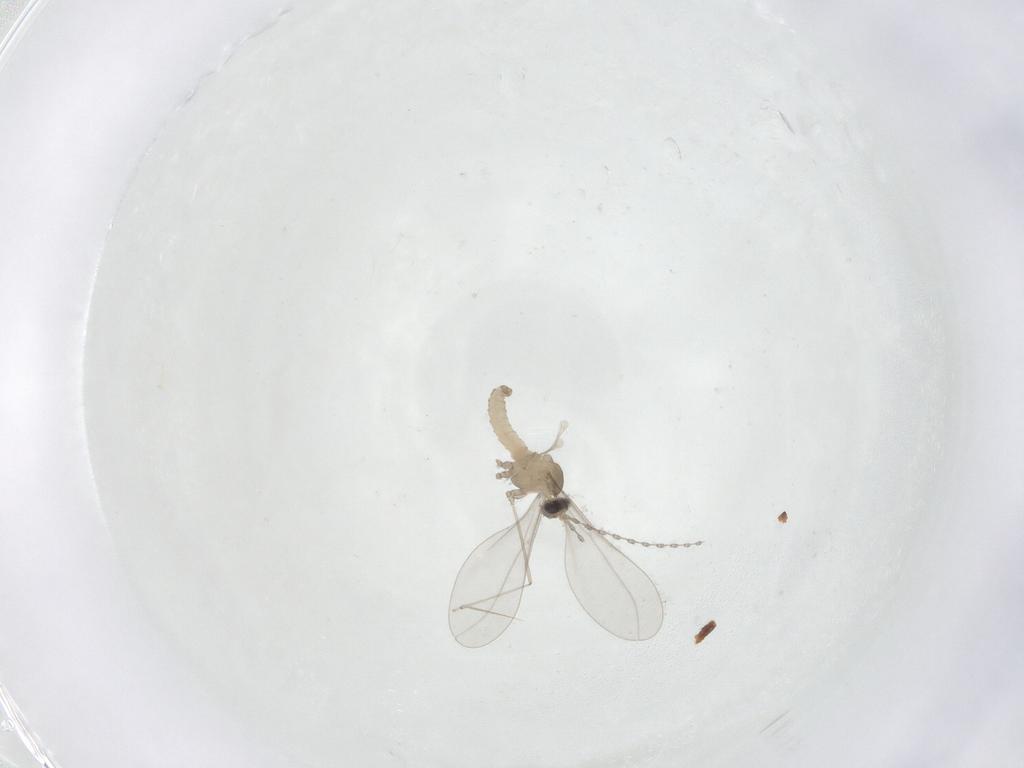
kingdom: Animalia
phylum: Arthropoda
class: Insecta
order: Diptera
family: Cecidomyiidae
